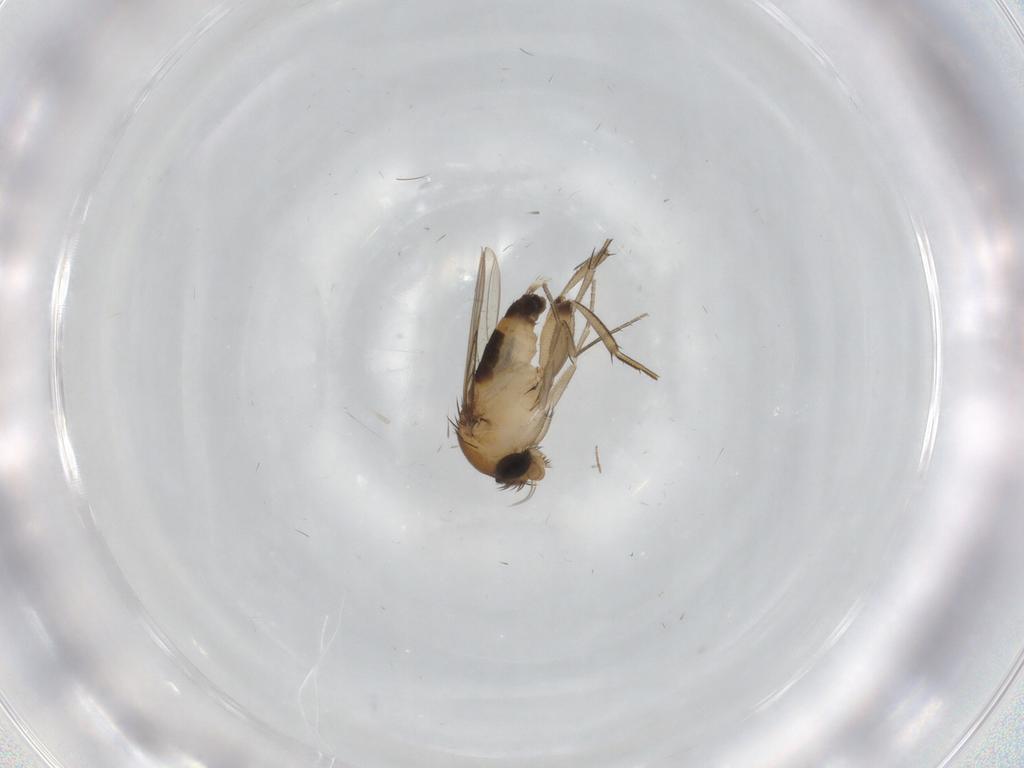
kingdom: Animalia
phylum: Arthropoda
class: Insecta
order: Diptera
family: Phoridae
